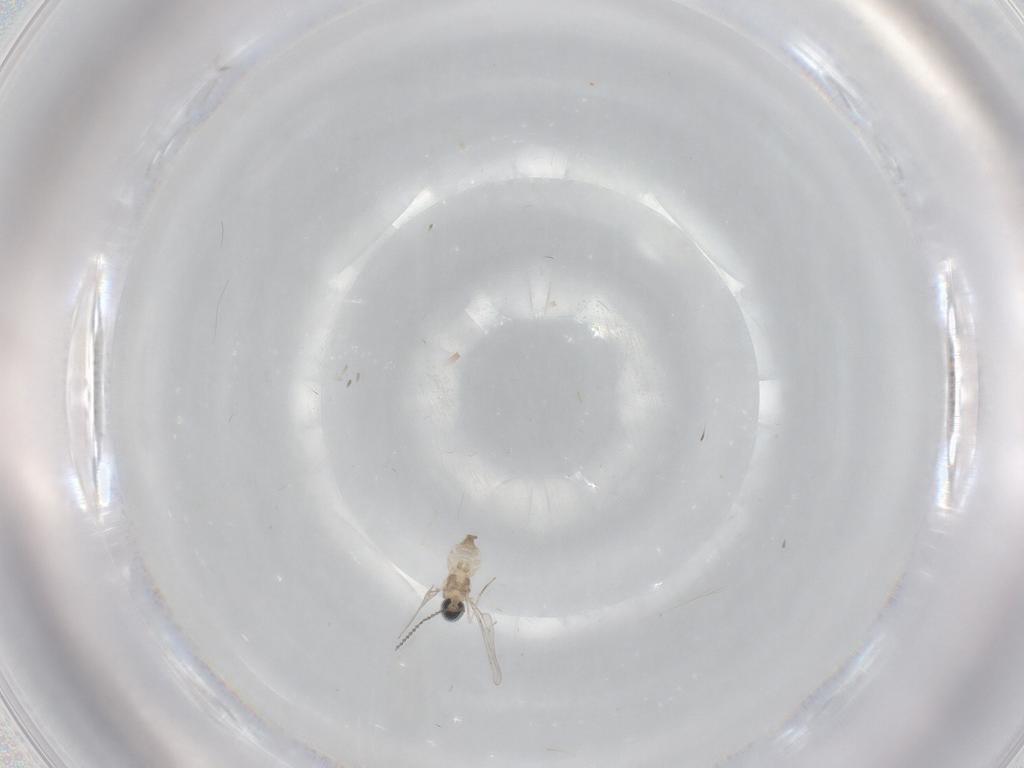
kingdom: Animalia
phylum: Arthropoda
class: Insecta
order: Diptera
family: Cecidomyiidae
